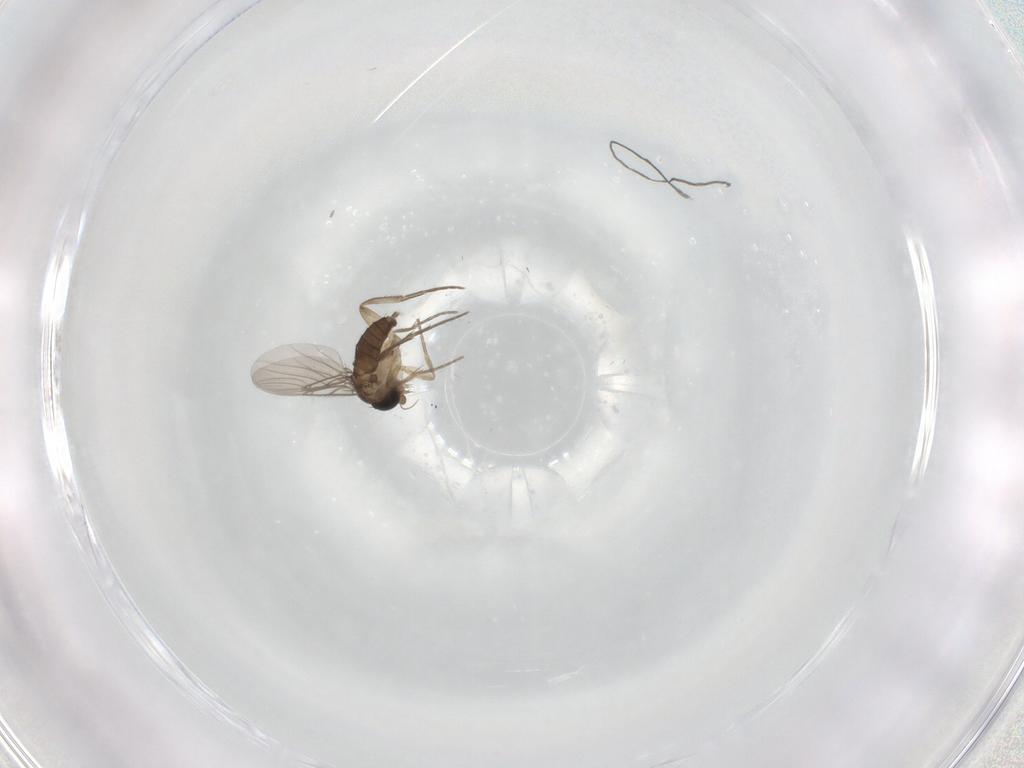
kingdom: Animalia
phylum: Arthropoda
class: Insecta
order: Diptera
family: Phoridae
